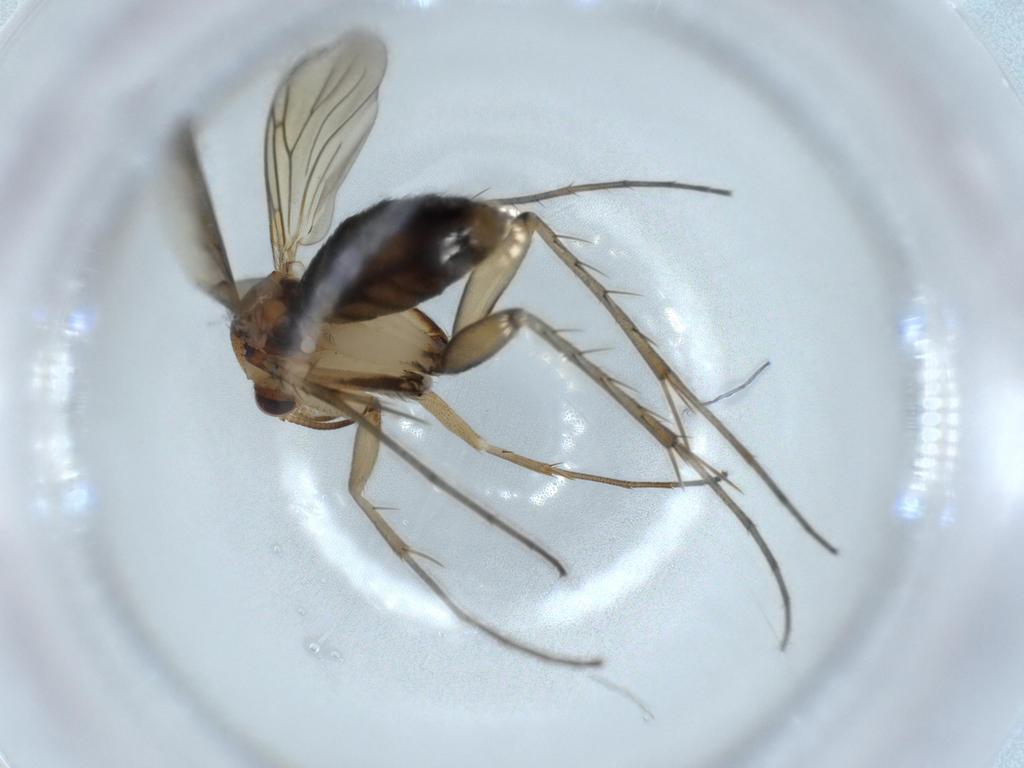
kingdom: Animalia
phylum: Arthropoda
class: Insecta
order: Diptera
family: Mycetophilidae
